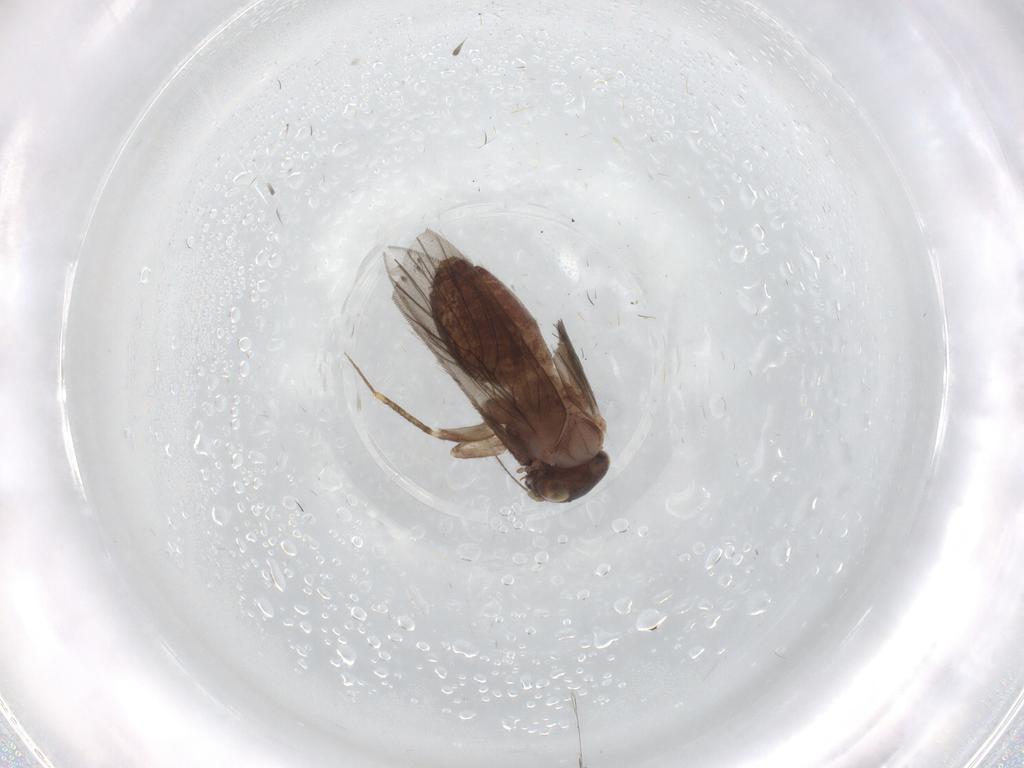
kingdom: Animalia
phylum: Arthropoda
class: Insecta
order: Psocodea
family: Lepidopsocidae
